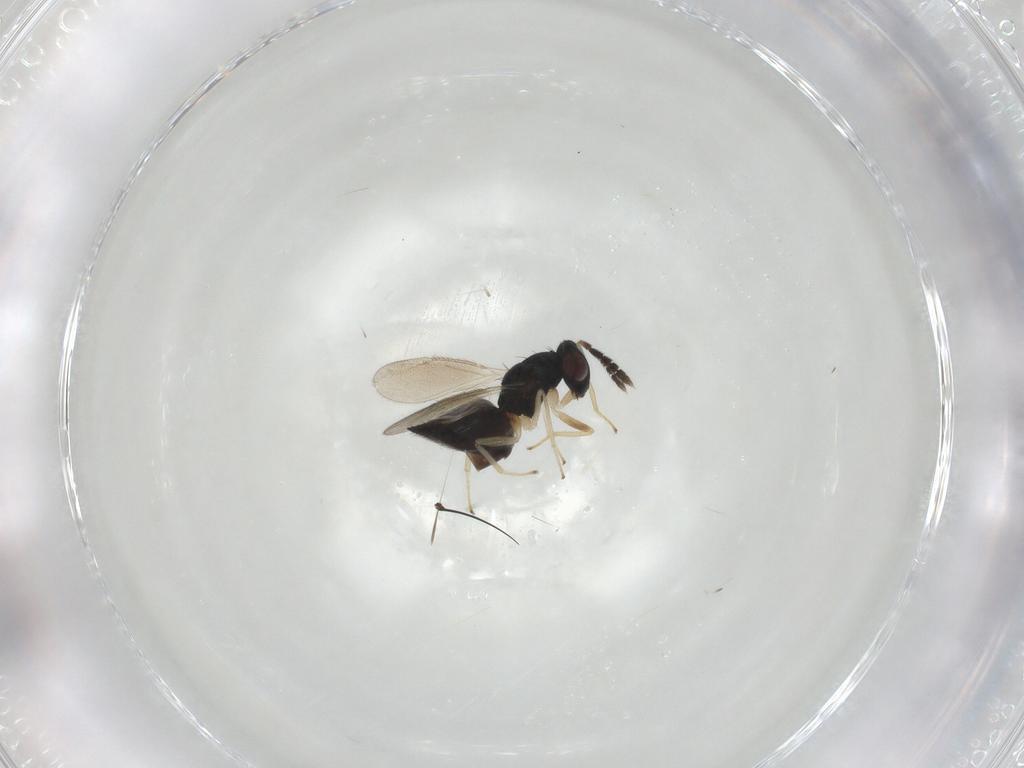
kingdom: Animalia
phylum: Arthropoda
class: Insecta
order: Hymenoptera
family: Eulophidae
